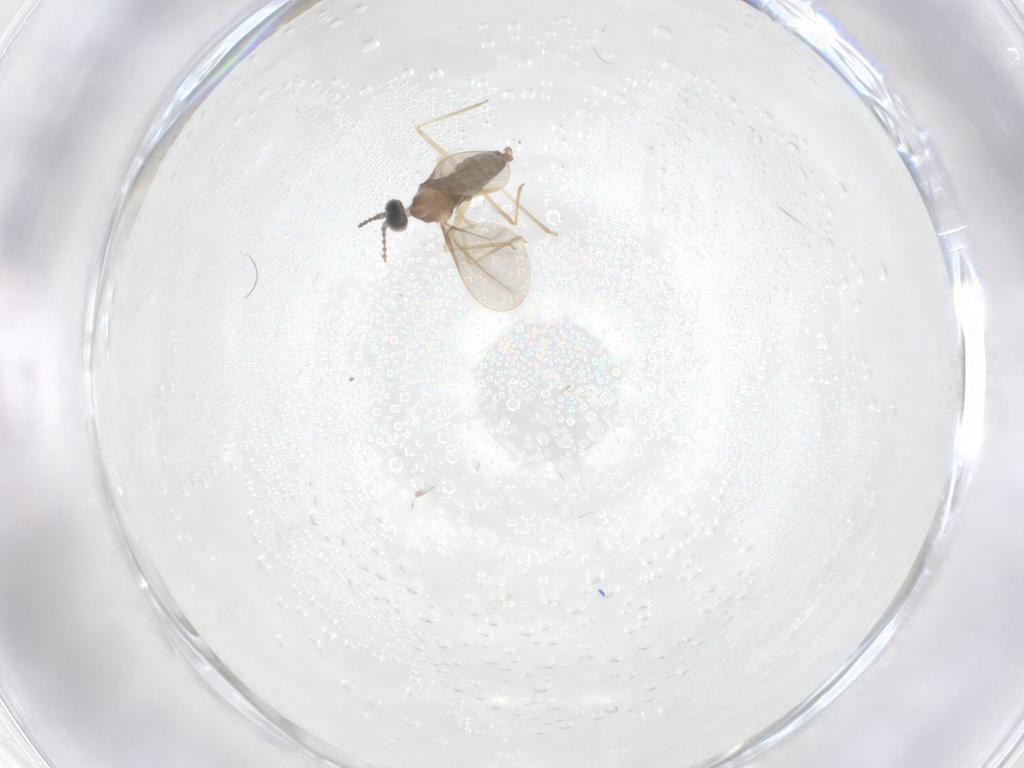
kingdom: Animalia
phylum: Arthropoda
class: Insecta
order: Diptera
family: Cecidomyiidae
